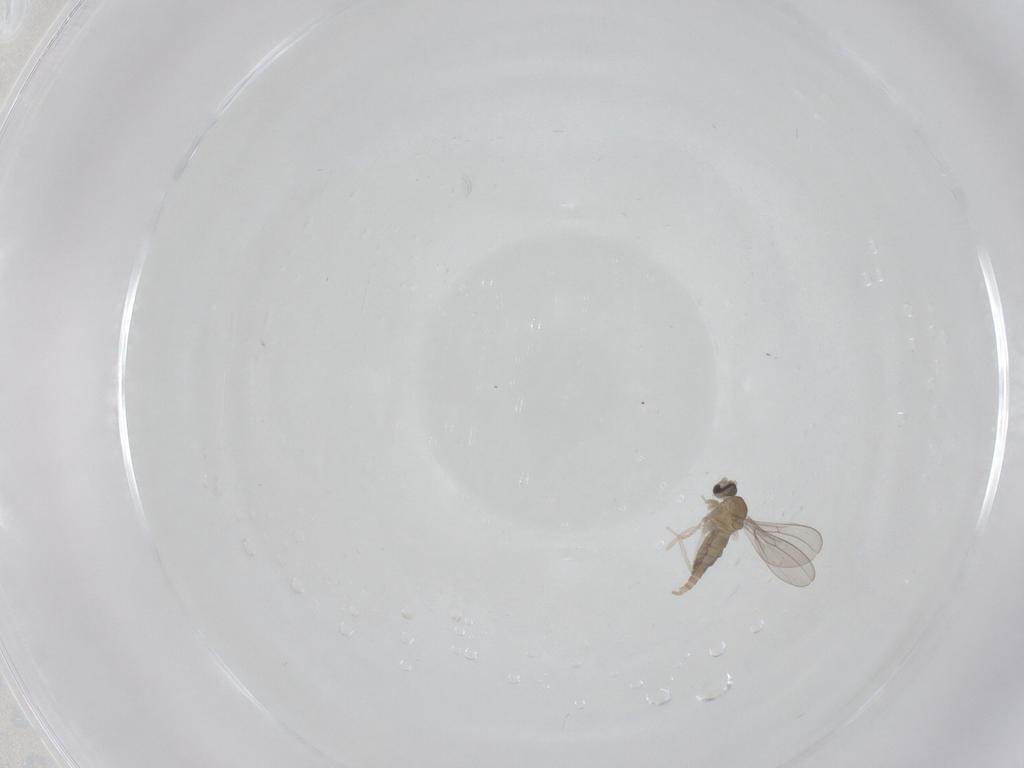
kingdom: Animalia
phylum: Arthropoda
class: Insecta
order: Diptera
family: Cecidomyiidae
